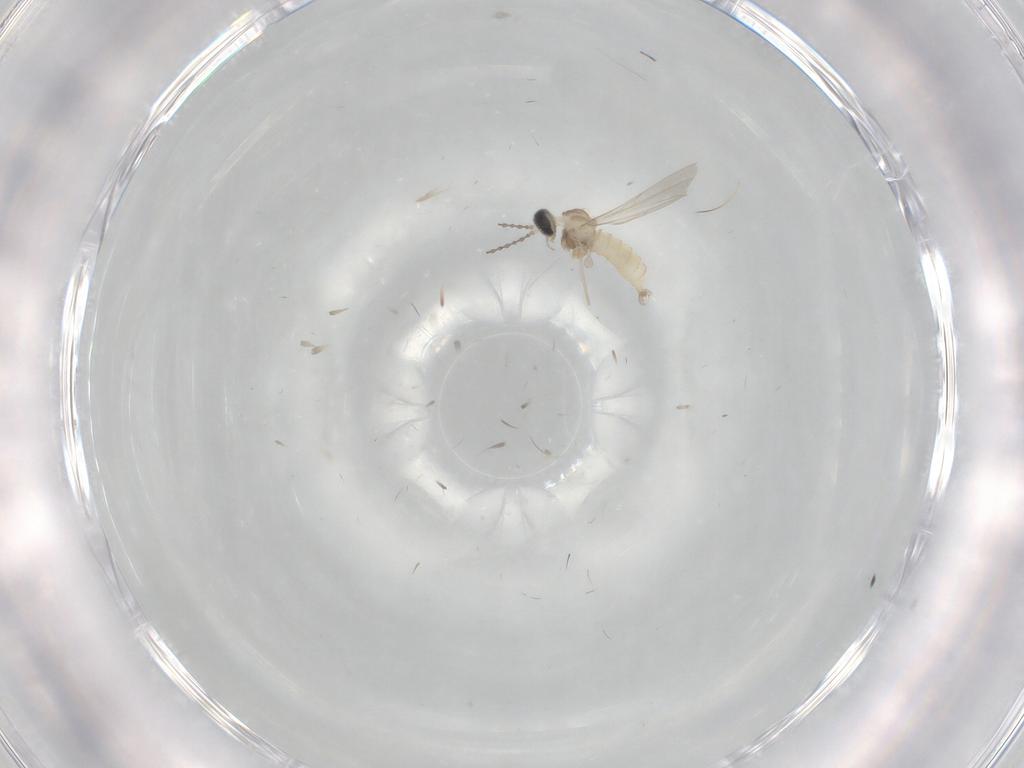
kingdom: Animalia
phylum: Arthropoda
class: Insecta
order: Diptera
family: Cecidomyiidae
